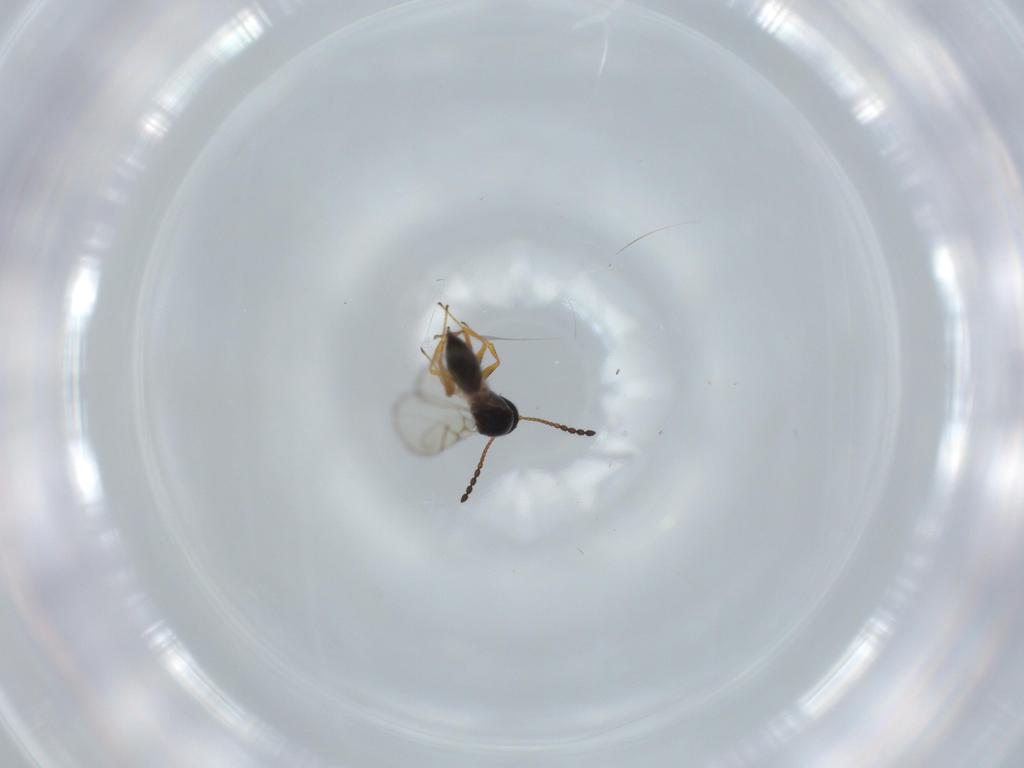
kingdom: Animalia
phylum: Arthropoda
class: Insecta
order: Hymenoptera
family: Figitidae
